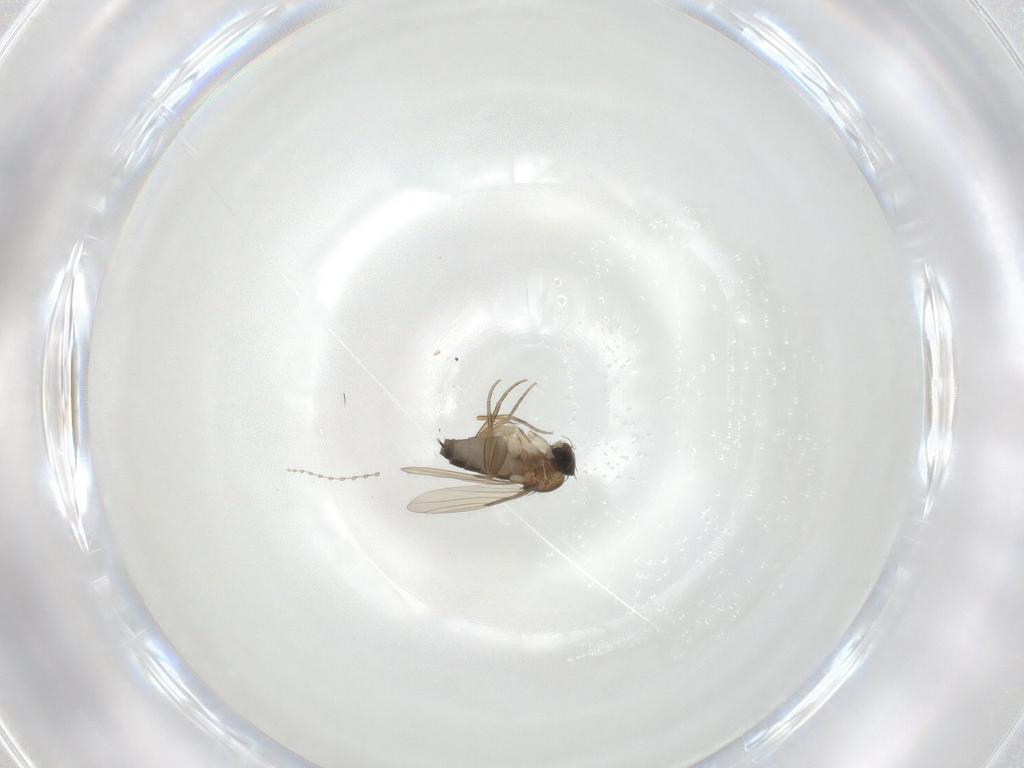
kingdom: Animalia
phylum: Arthropoda
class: Insecta
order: Diptera
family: Limoniidae
